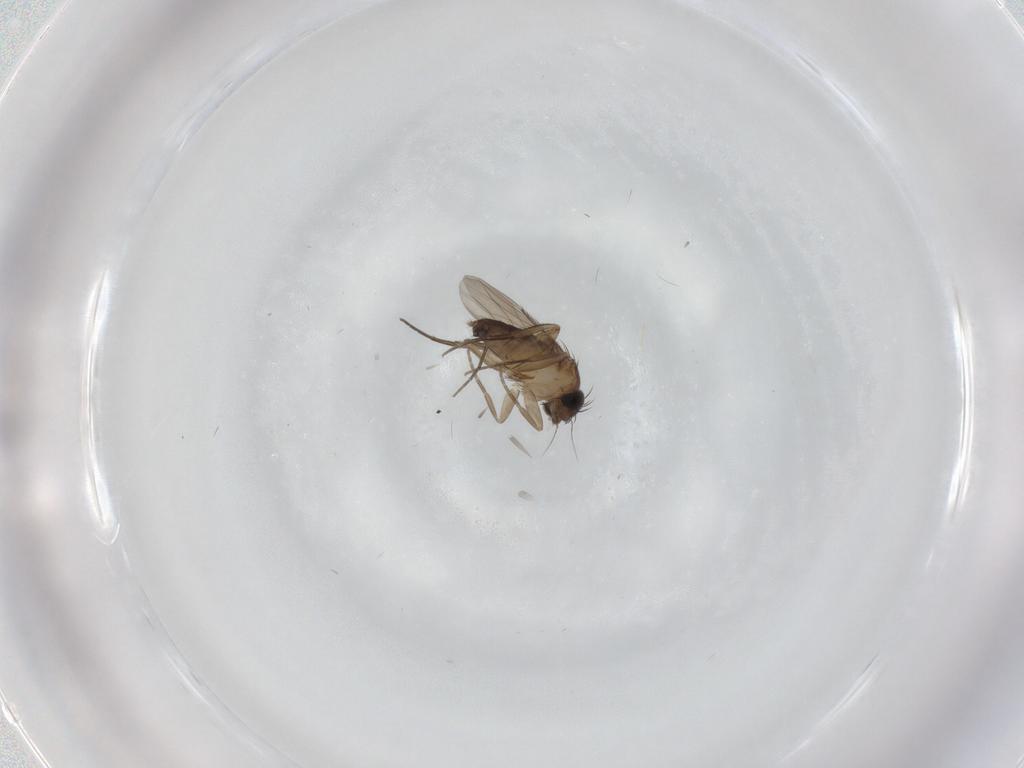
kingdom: Animalia
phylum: Arthropoda
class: Insecta
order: Diptera
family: Phoridae
